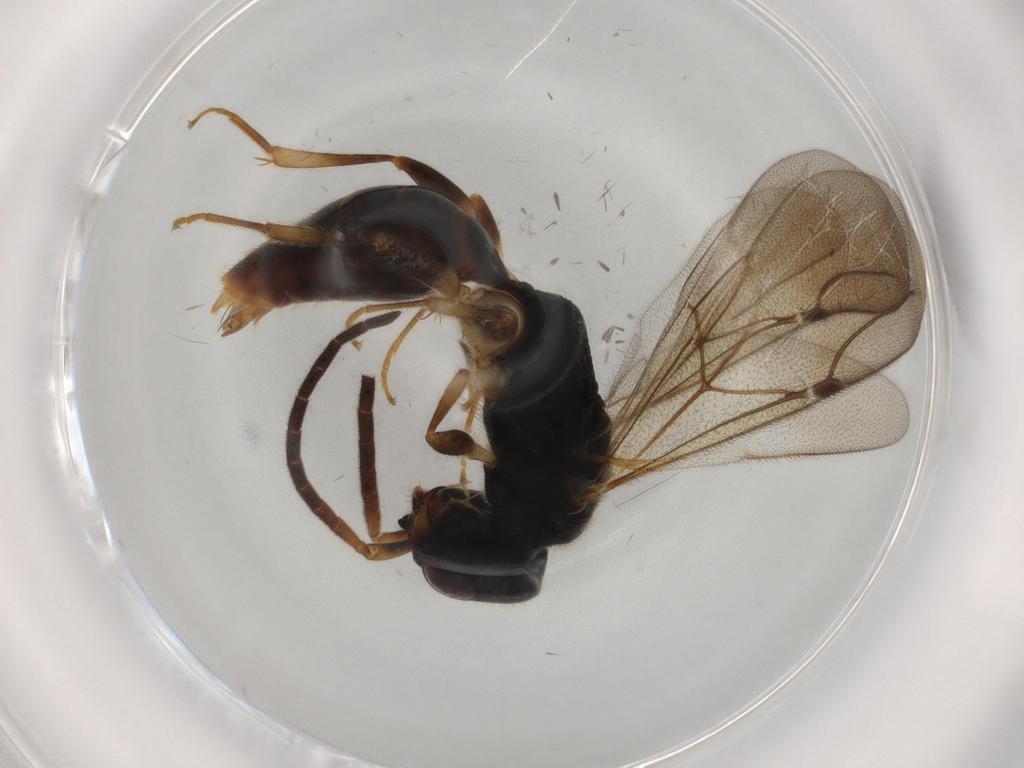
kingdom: Animalia
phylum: Arthropoda
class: Insecta
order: Hymenoptera
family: Bethylidae
